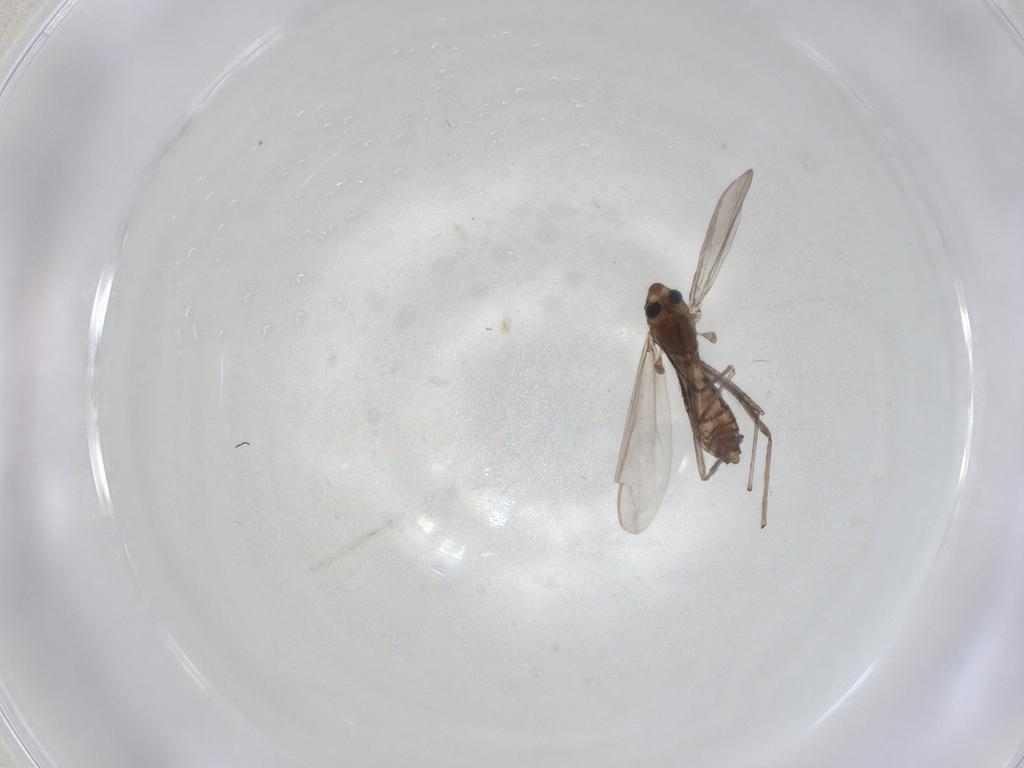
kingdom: Animalia
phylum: Arthropoda
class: Insecta
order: Diptera
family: Chironomidae
